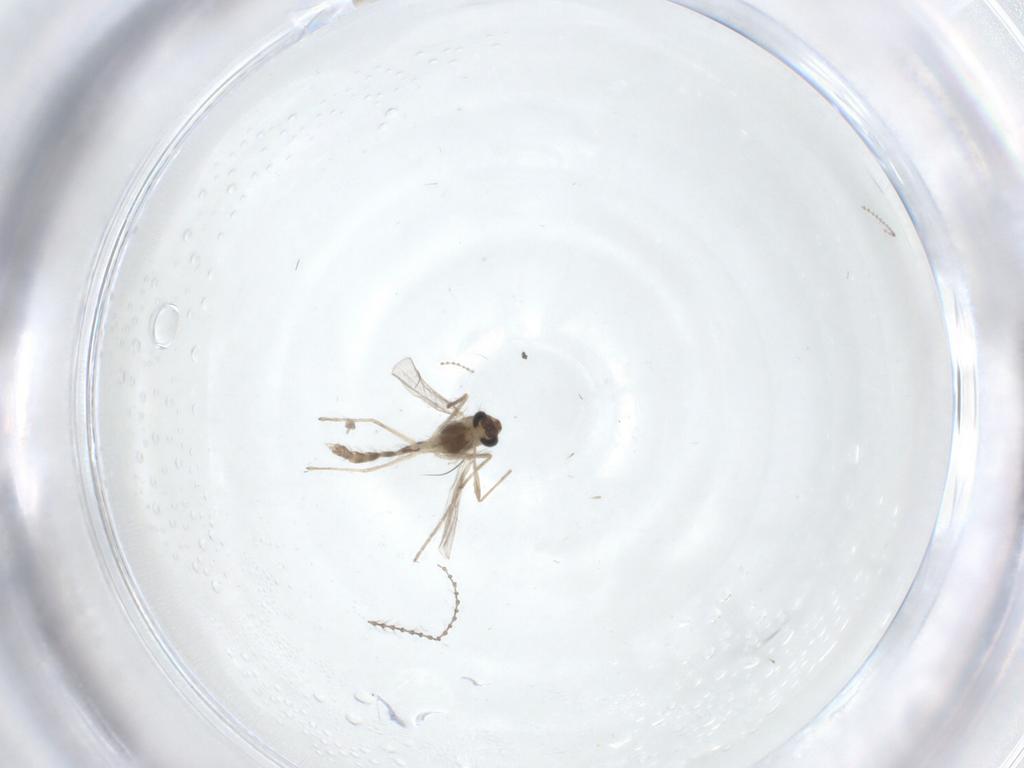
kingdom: Animalia
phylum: Arthropoda
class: Insecta
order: Diptera
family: Chironomidae
